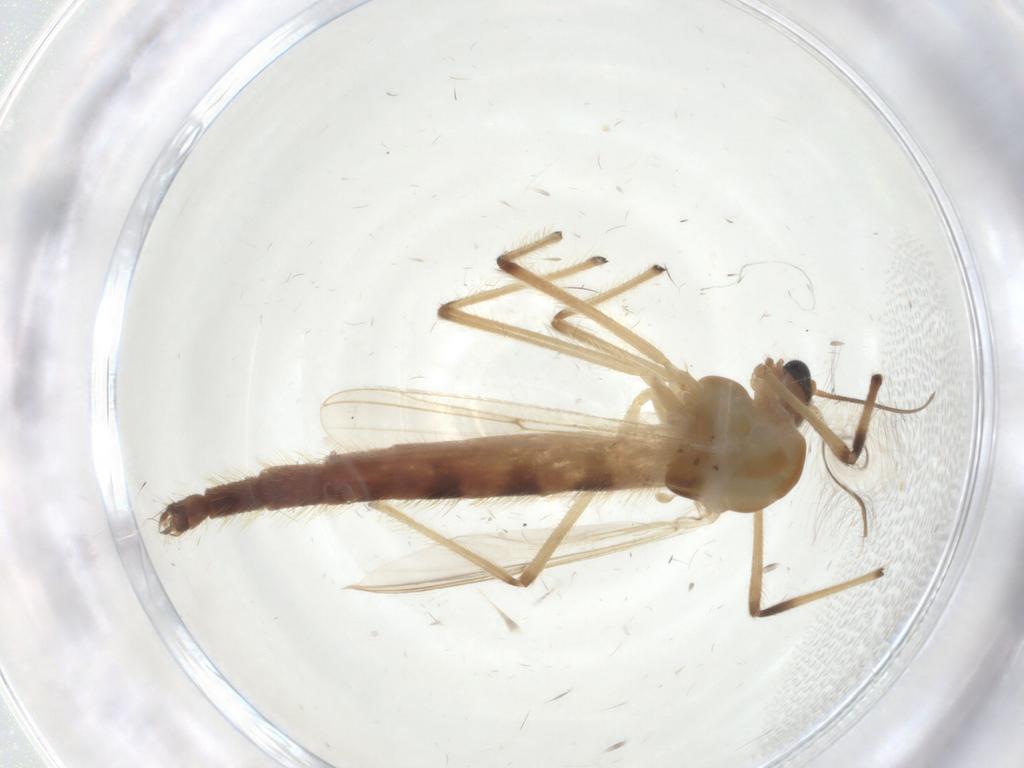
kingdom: Animalia
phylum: Arthropoda
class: Insecta
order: Diptera
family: Chironomidae
